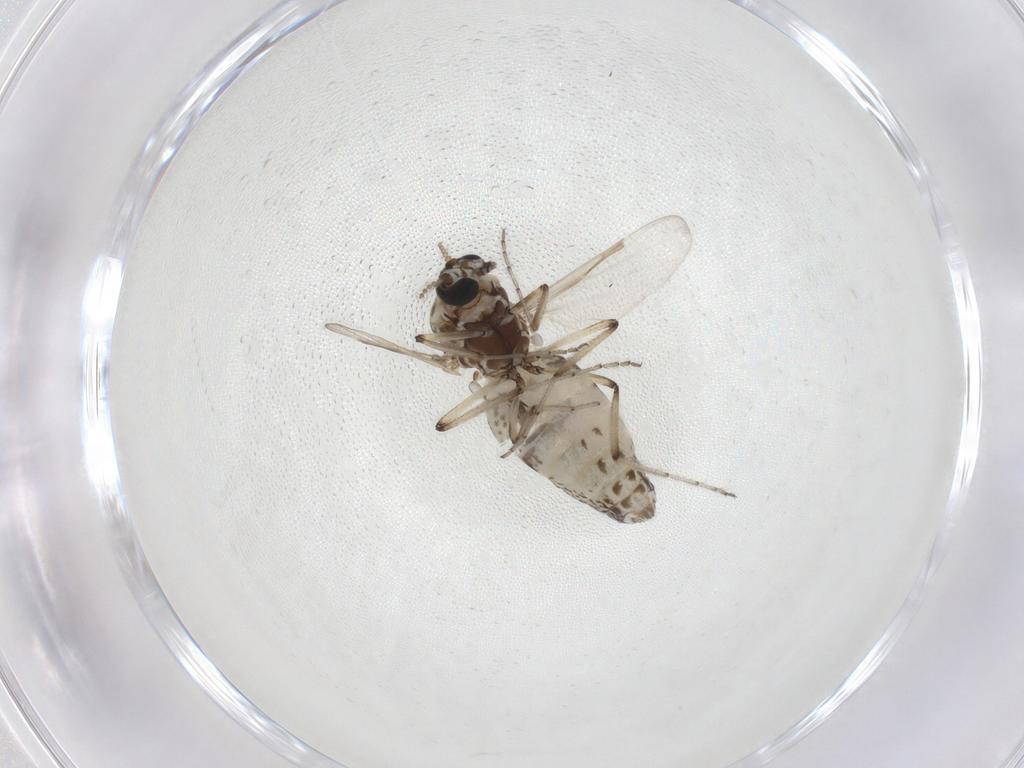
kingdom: Animalia
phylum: Arthropoda
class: Insecta
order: Diptera
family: Ceratopogonidae
